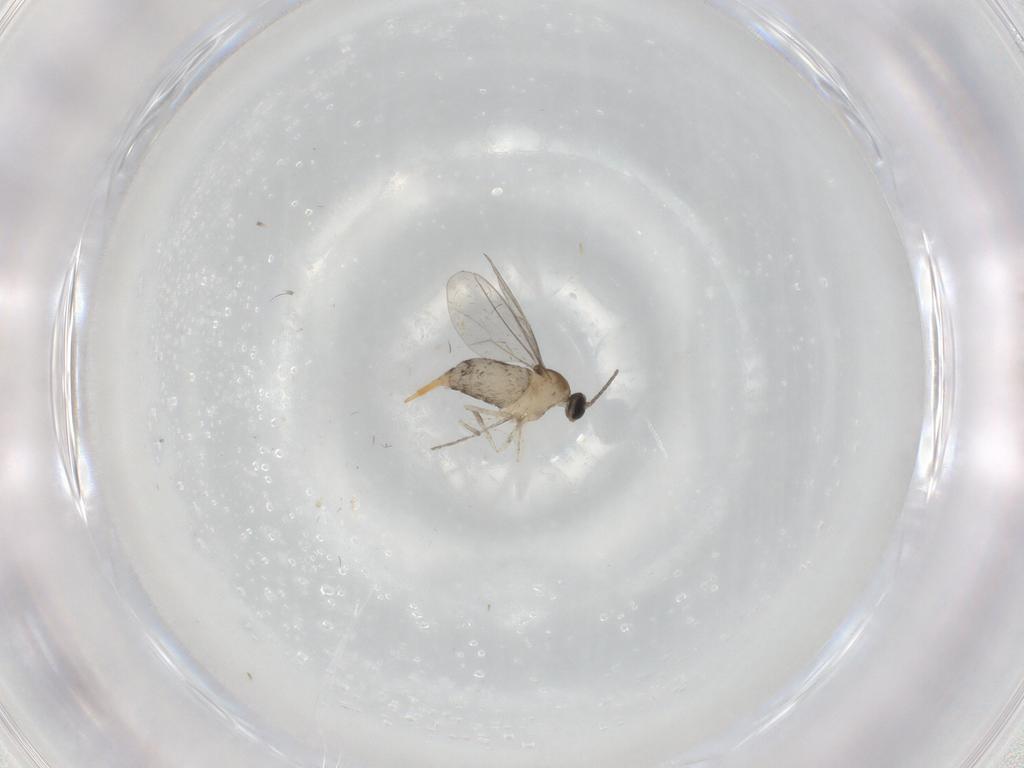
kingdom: Animalia
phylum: Arthropoda
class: Insecta
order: Diptera
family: Cecidomyiidae
